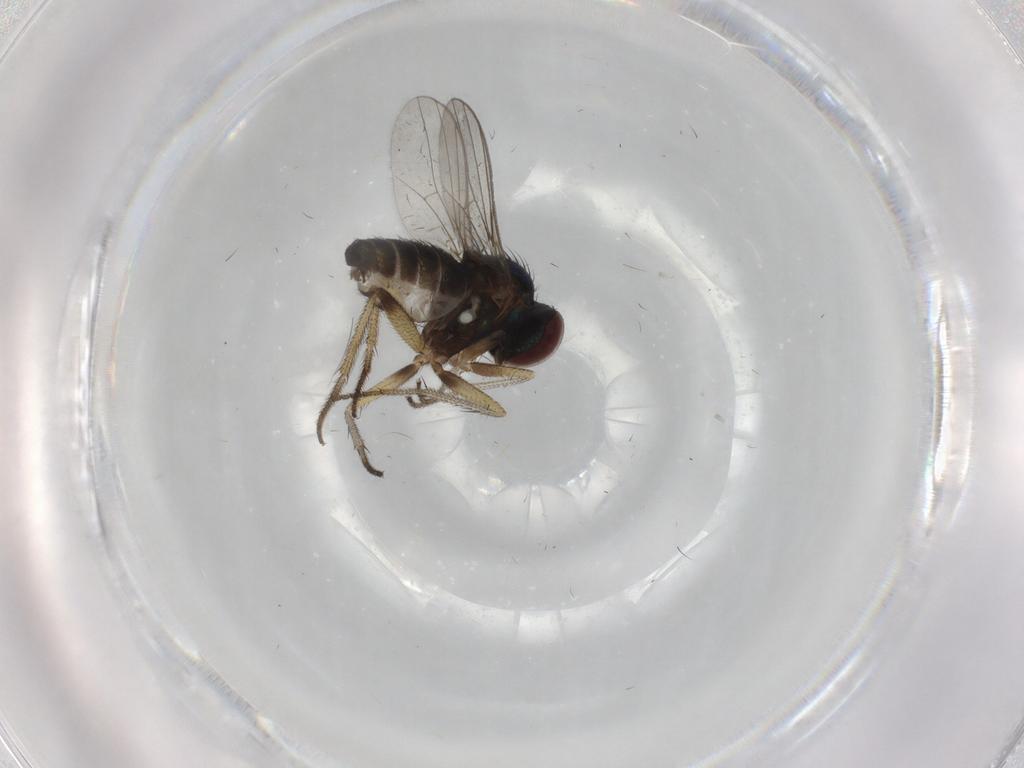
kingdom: Animalia
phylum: Arthropoda
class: Insecta
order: Diptera
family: Dolichopodidae
